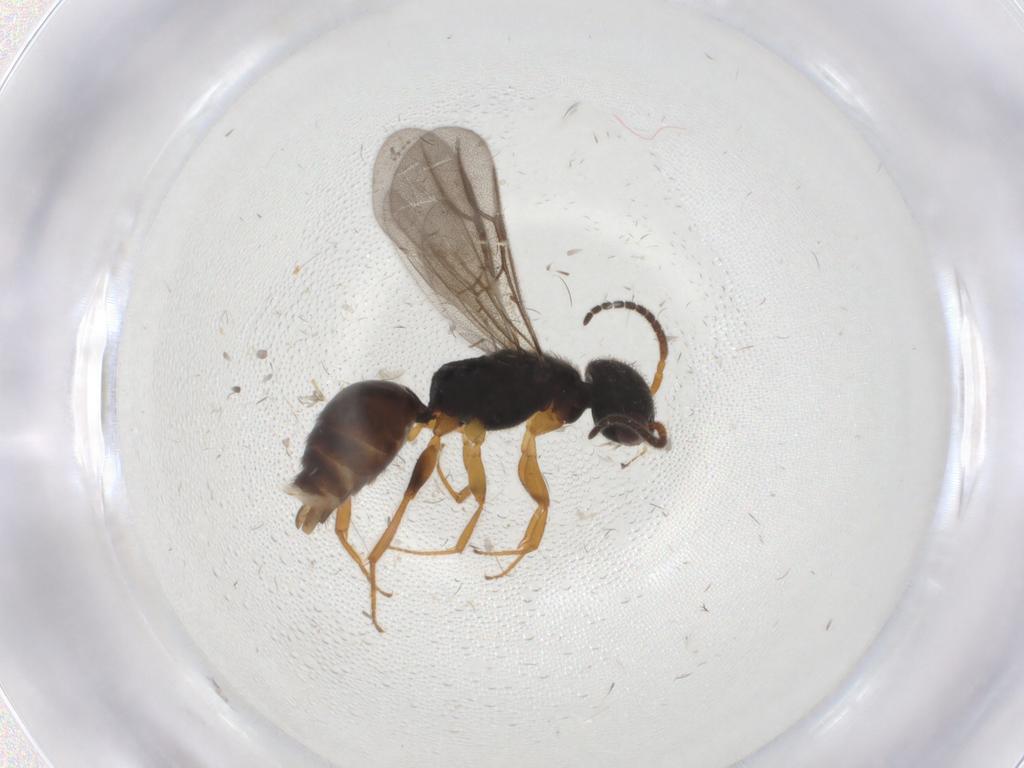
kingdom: Animalia
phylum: Arthropoda
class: Insecta
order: Hymenoptera
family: Bethylidae
